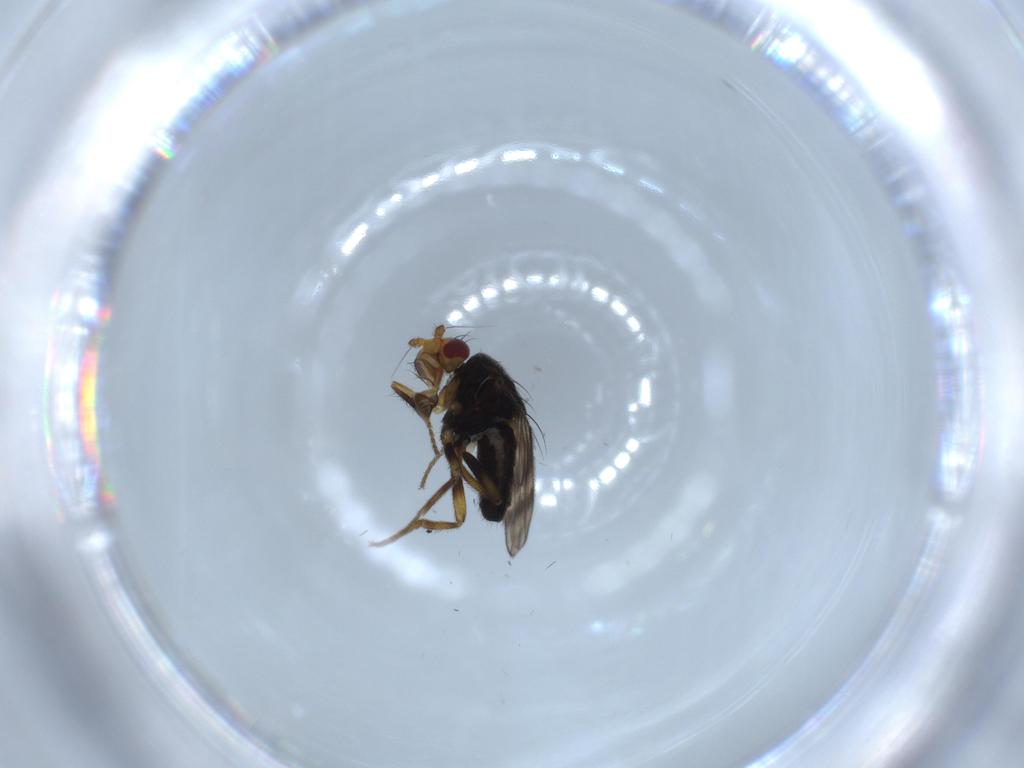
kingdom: Animalia
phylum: Arthropoda
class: Insecta
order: Diptera
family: Sphaeroceridae
